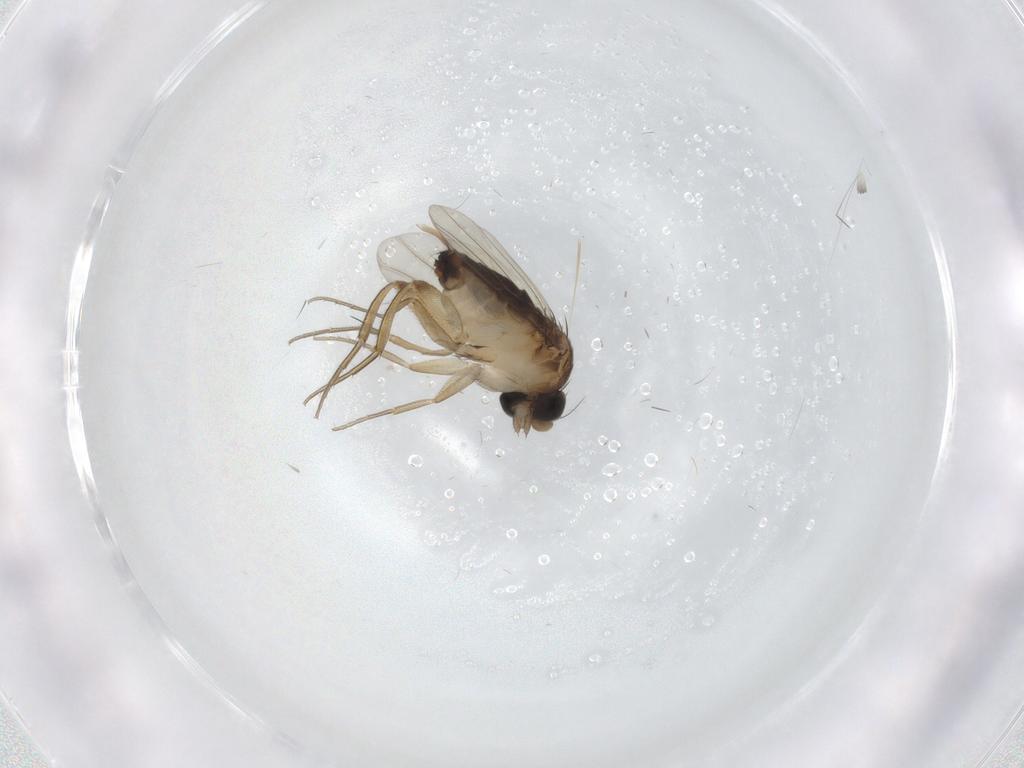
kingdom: Animalia
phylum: Arthropoda
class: Insecta
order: Diptera
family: Phoridae
